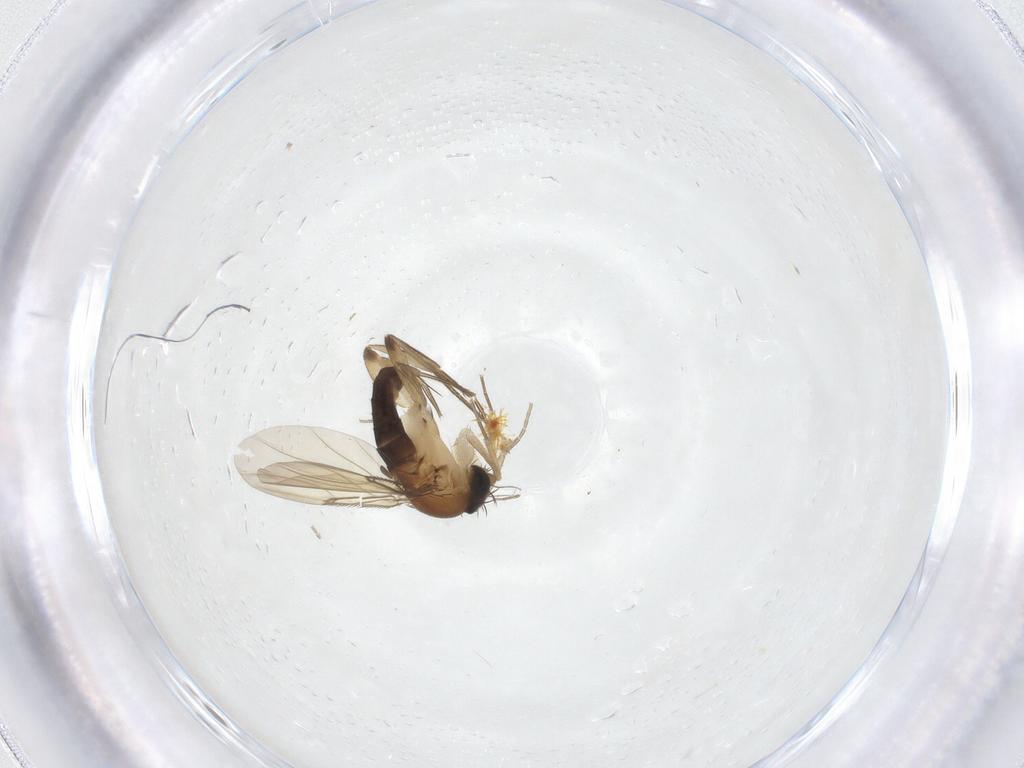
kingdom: Animalia
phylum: Arthropoda
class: Insecta
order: Diptera
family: Phoridae
